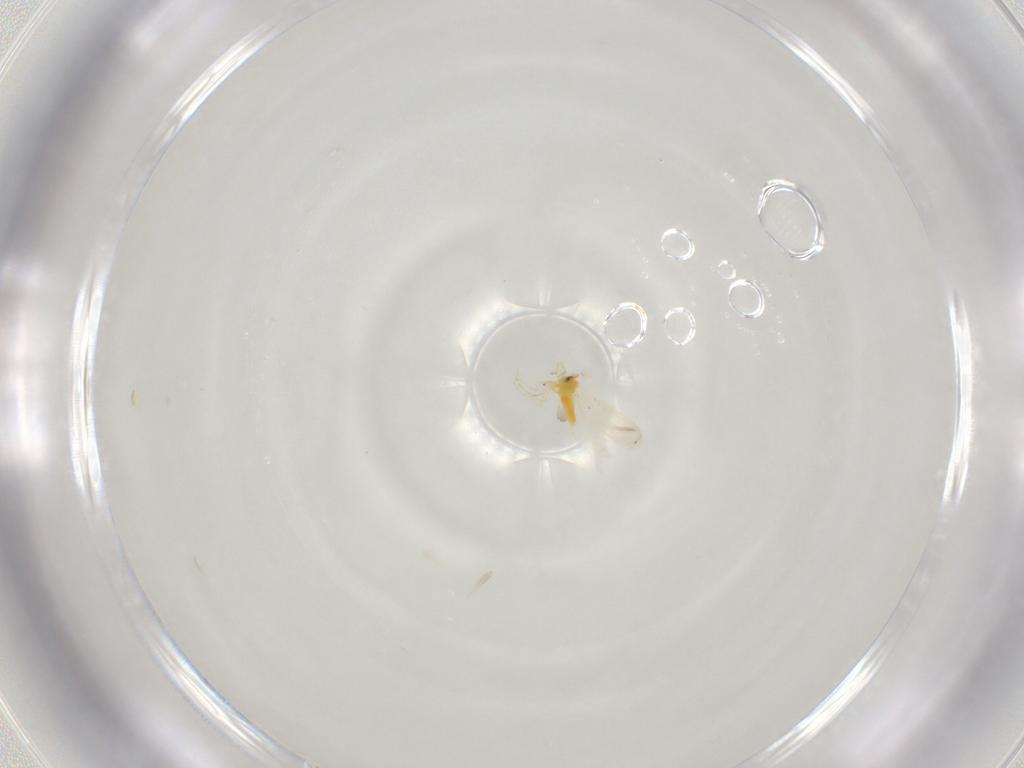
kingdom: Animalia
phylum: Arthropoda
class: Insecta
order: Hemiptera
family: Aleyrodidae
